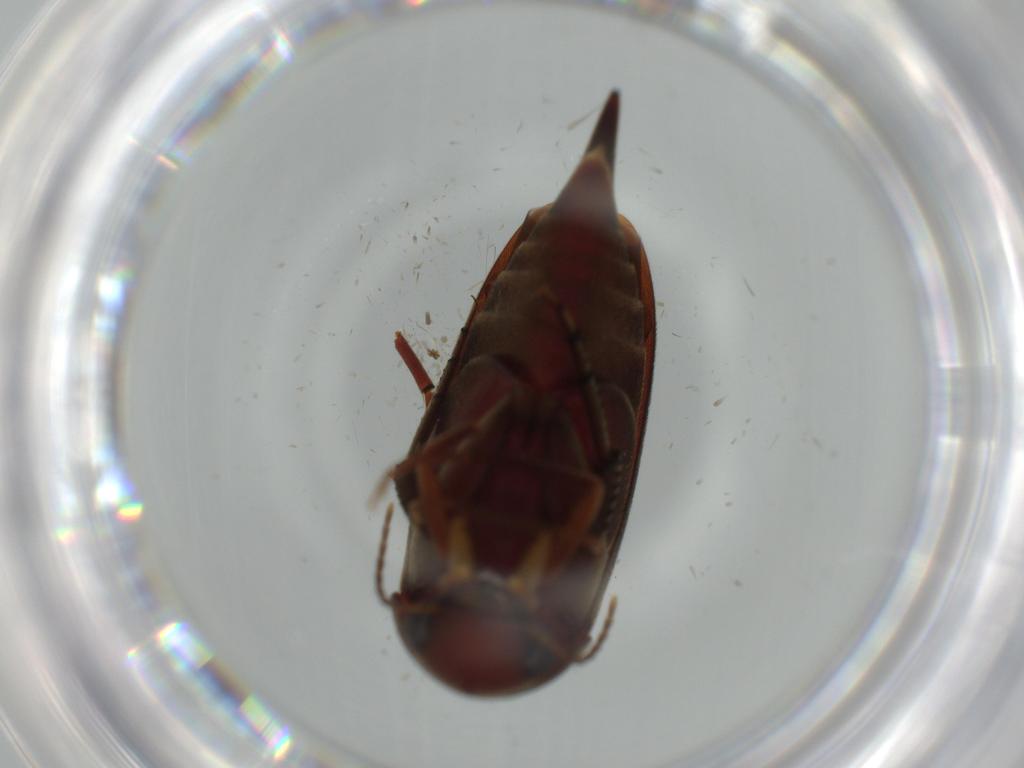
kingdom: Animalia
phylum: Arthropoda
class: Insecta
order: Coleoptera
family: Mordellidae
